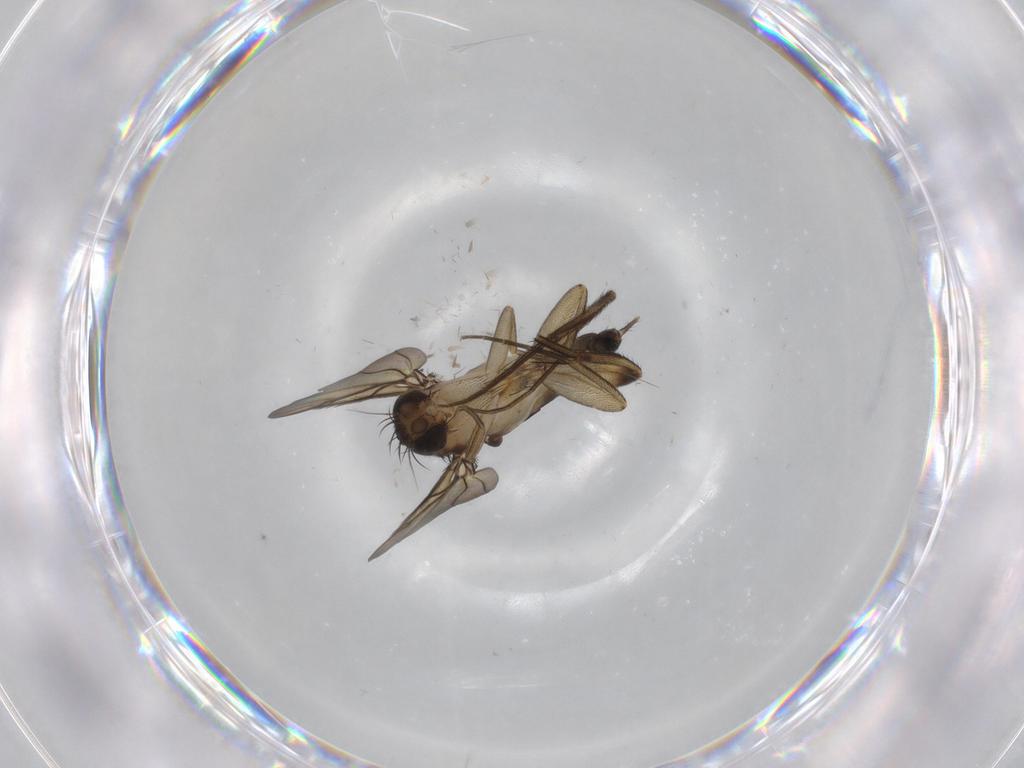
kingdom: Animalia
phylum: Arthropoda
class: Insecta
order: Diptera
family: Phoridae
